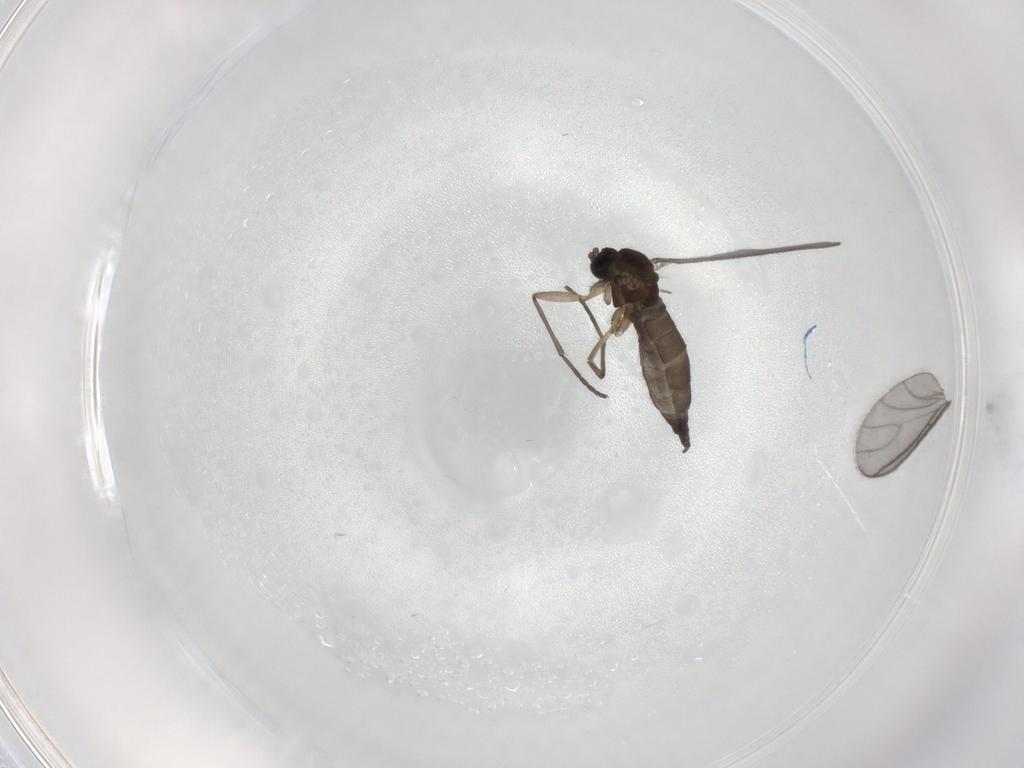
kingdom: Animalia
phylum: Arthropoda
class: Insecta
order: Diptera
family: Sciaridae
